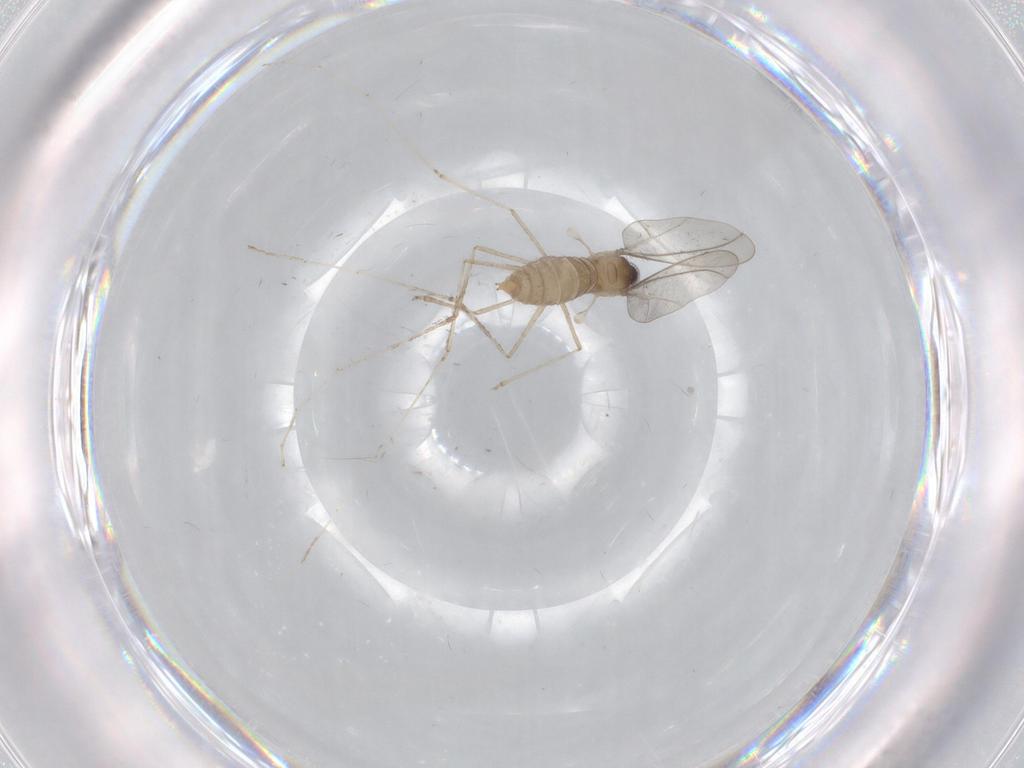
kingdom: Animalia
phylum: Arthropoda
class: Insecta
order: Diptera
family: Cecidomyiidae
